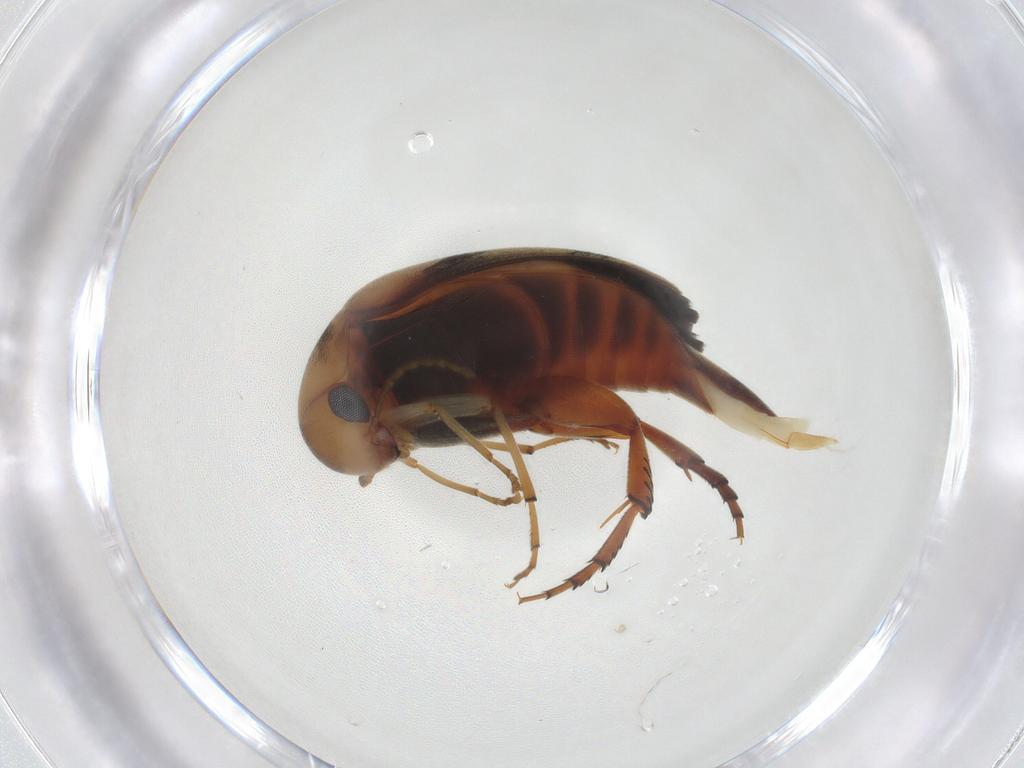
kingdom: Animalia
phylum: Arthropoda
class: Insecta
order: Coleoptera
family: Mordellidae
